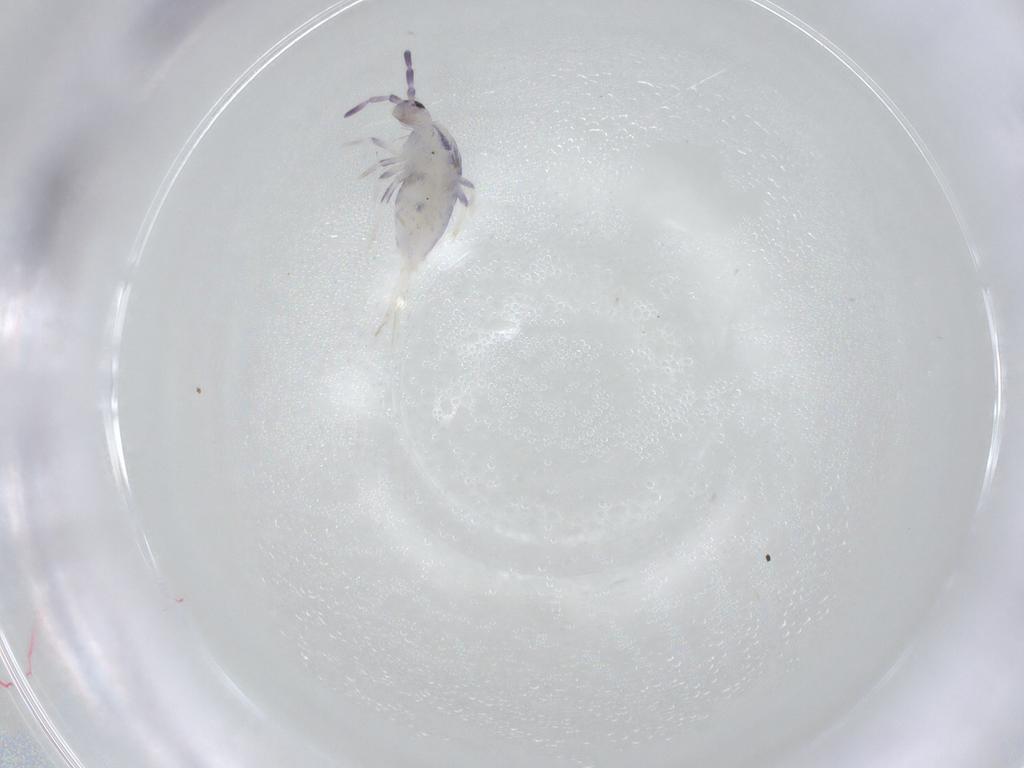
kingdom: Animalia
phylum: Arthropoda
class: Collembola
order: Poduromorpha
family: Hypogastruridae
